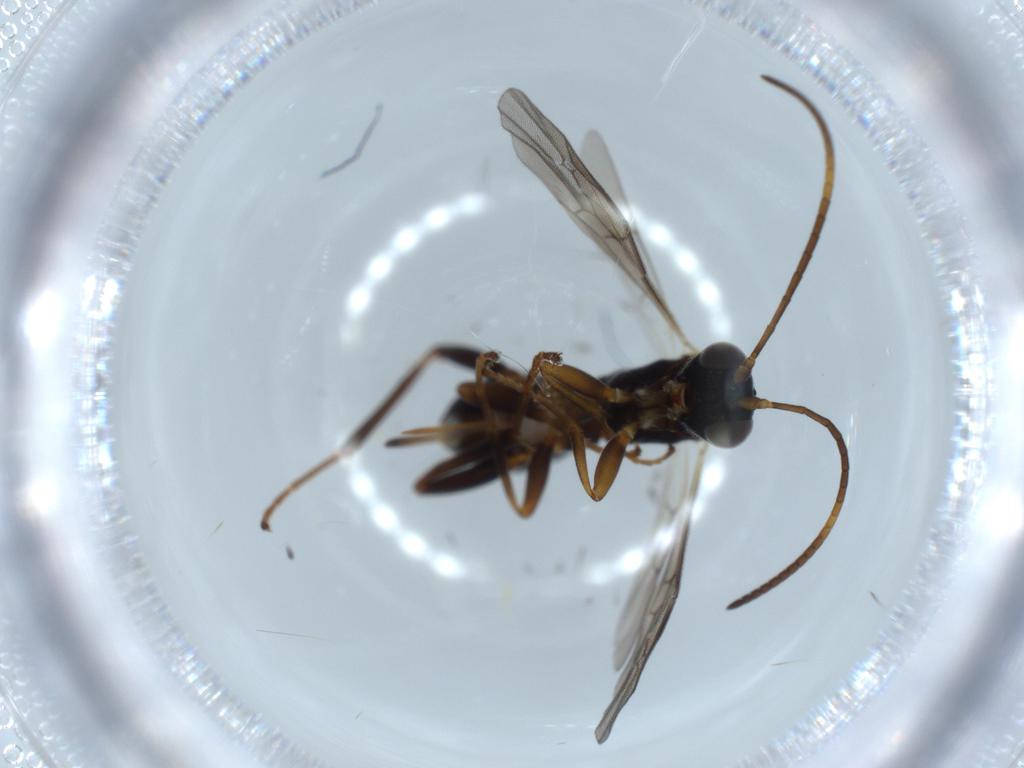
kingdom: Animalia
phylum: Arthropoda
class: Insecta
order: Hymenoptera
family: Ichneumonidae
